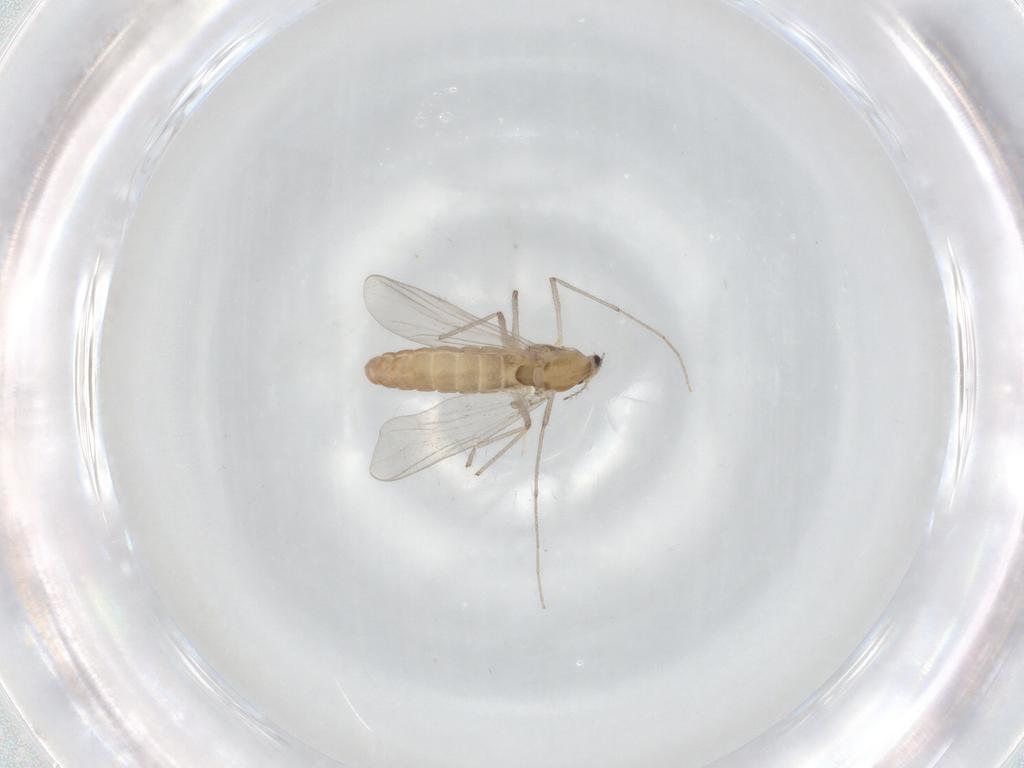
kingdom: Animalia
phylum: Arthropoda
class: Insecta
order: Diptera
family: Chironomidae
